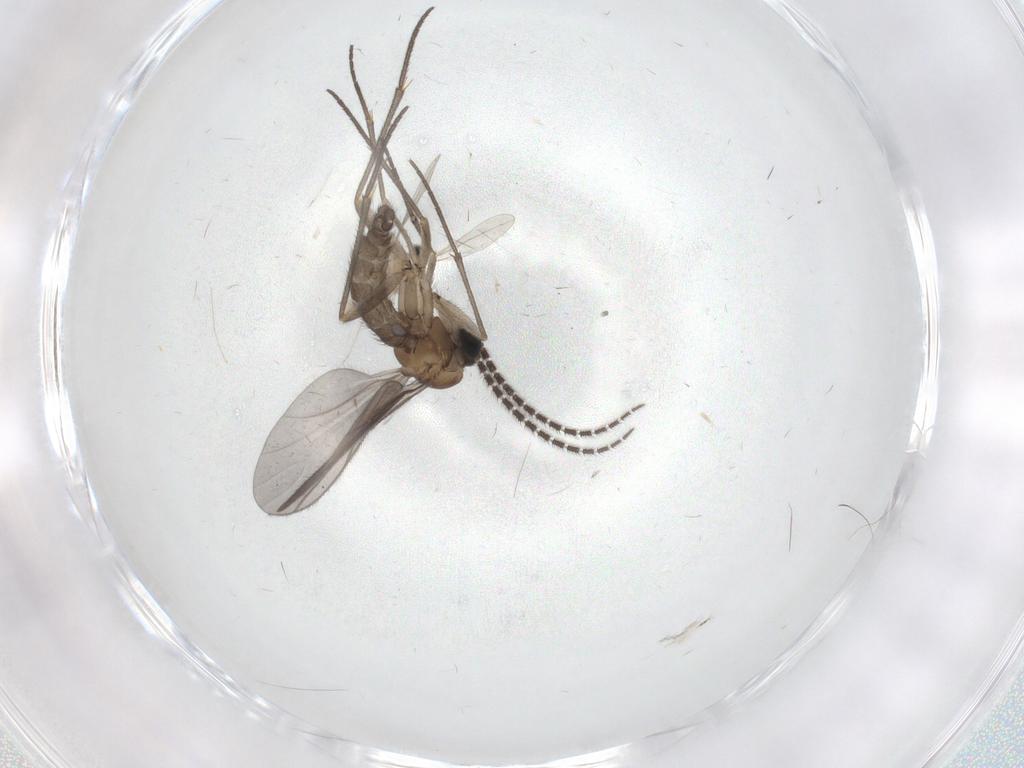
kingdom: Animalia
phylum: Arthropoda
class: Insecta
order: Diptera
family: Sciaridae
